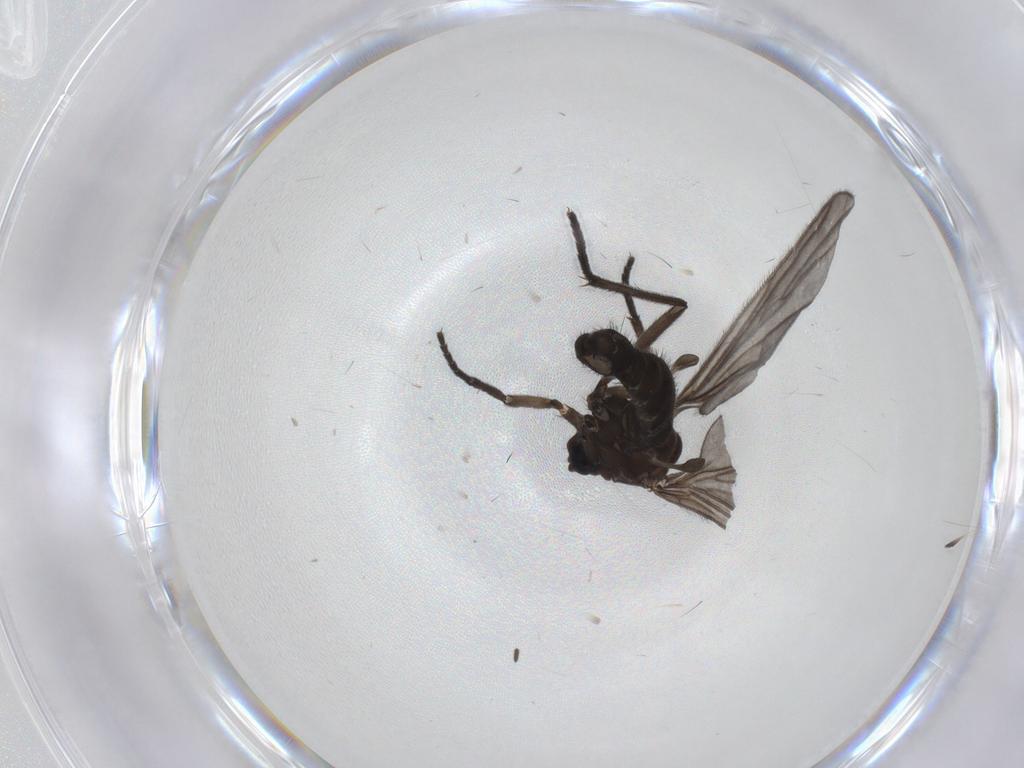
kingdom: Animalia
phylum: Arthropoda
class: Insecta
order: Diptera
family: Sciaridae
